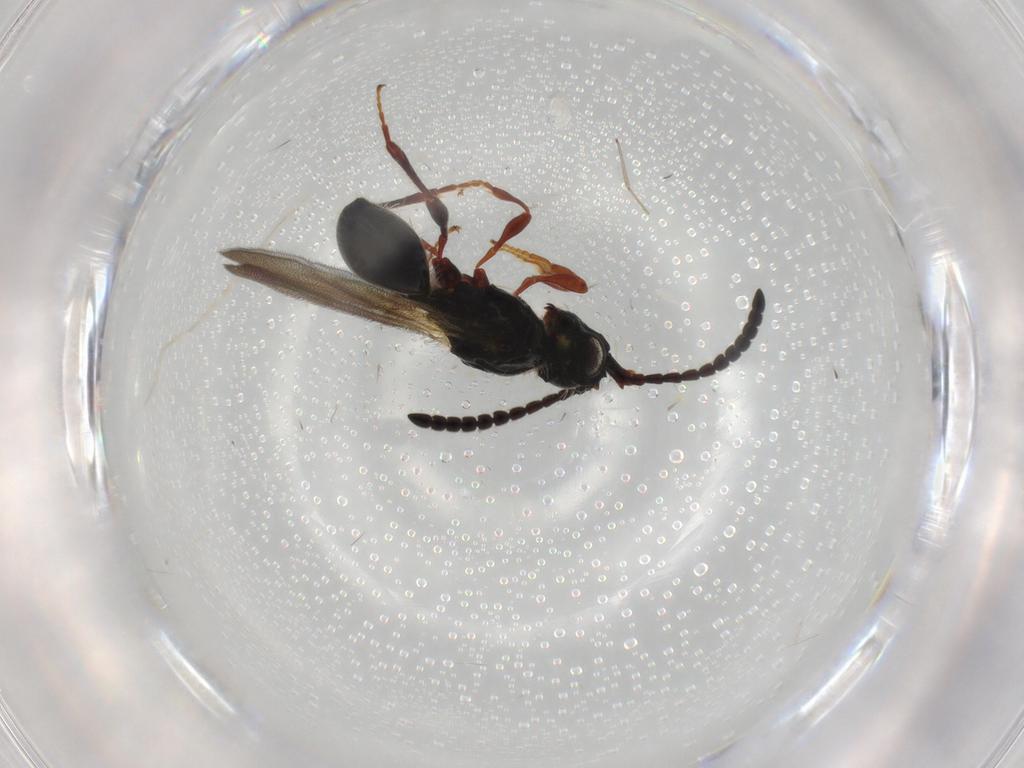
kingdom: Animalia
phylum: Arthropoda
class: Insecta
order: Hymenoptera
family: Diapriidae
